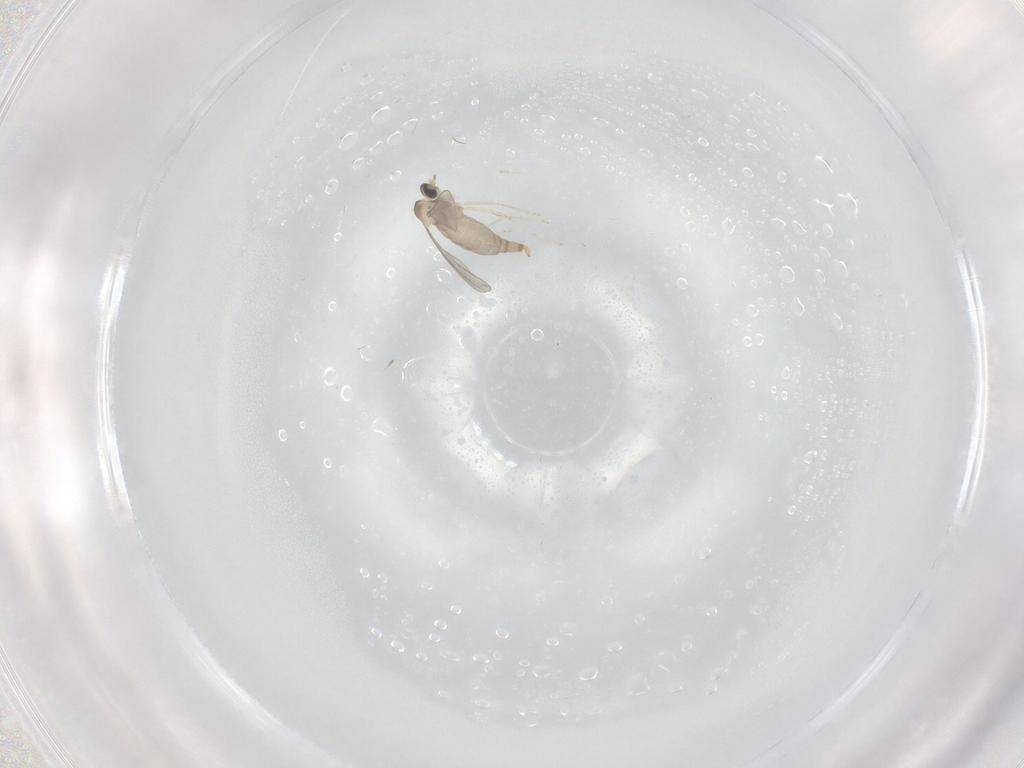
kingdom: Animalia
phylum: Arthropoda
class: Insecta
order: Diptera
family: Cecidomyiidae
